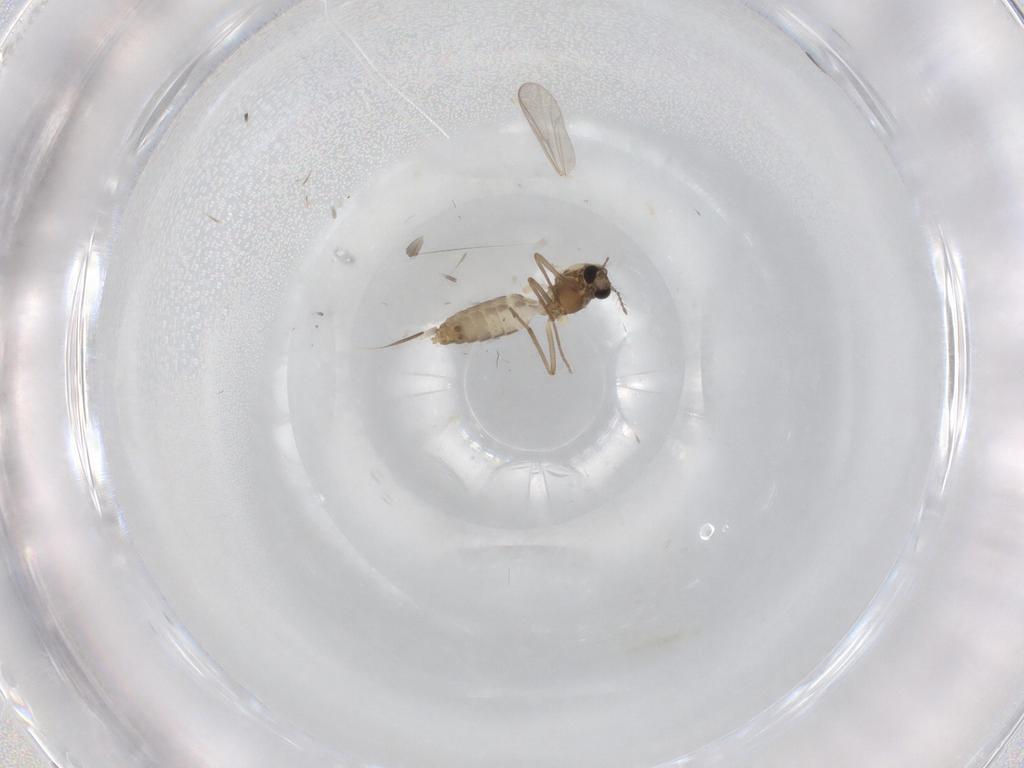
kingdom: Animalia
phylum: Arthropoda
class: Insecta
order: Diptera
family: Chironomidae
